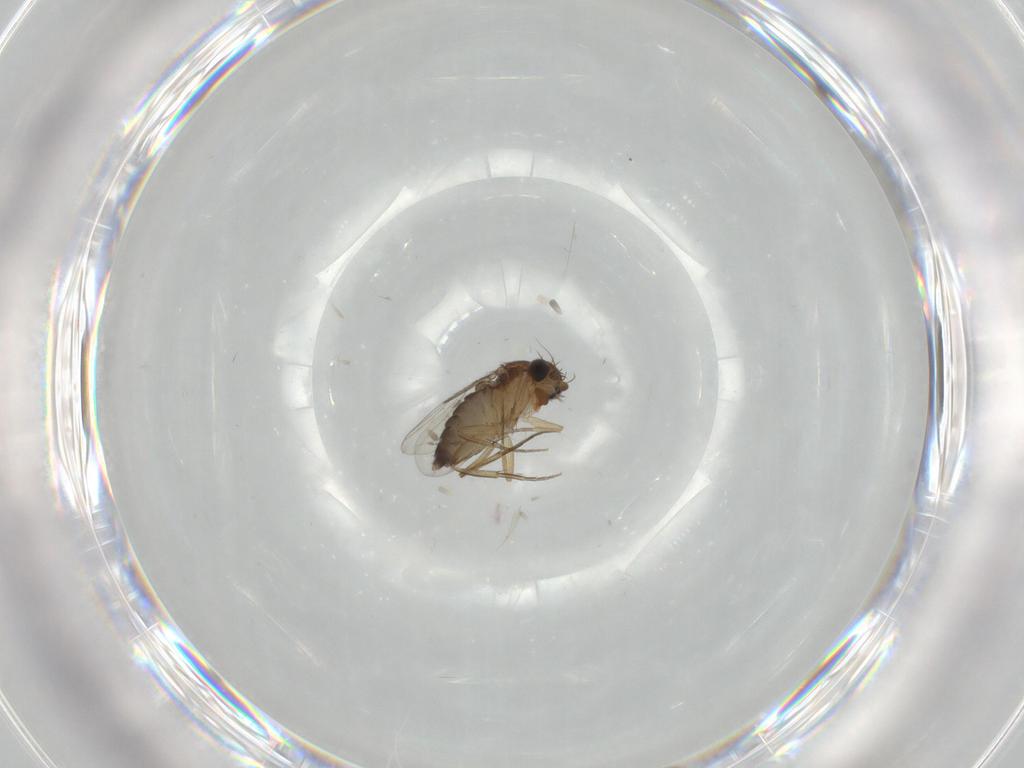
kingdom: Animalia
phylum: Arthropoda
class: Insecta
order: Diptera
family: Phoridae
